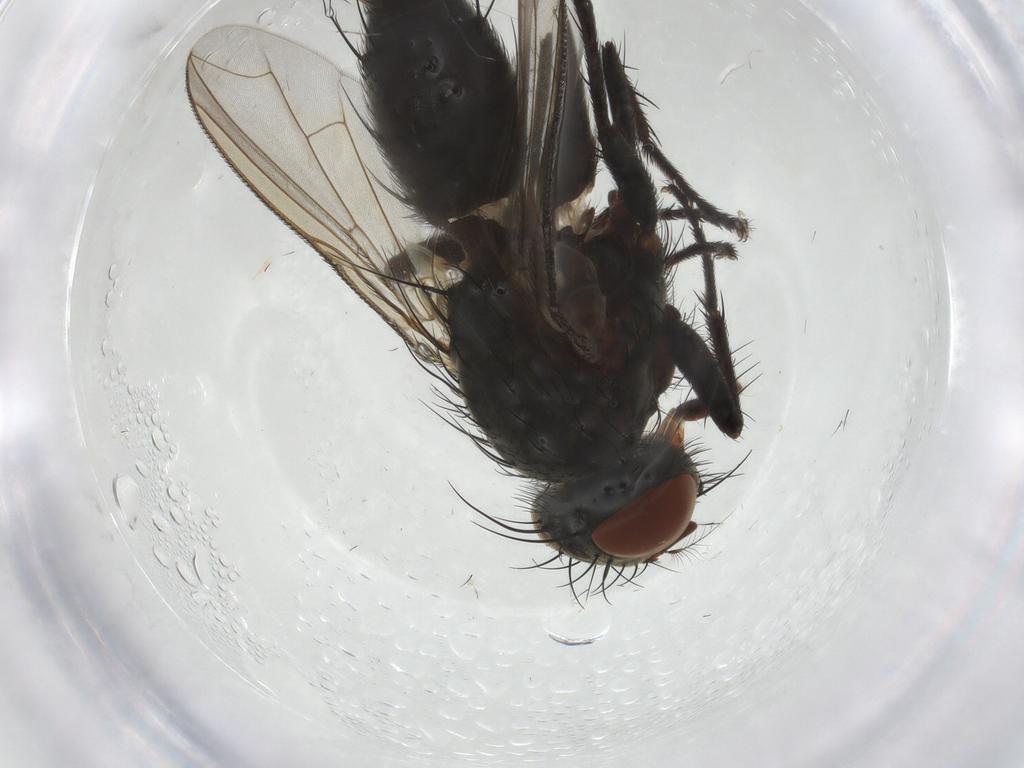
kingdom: Animalia
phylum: Arthropoda
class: Insecta
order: Diptera
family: Sarcophagidae
